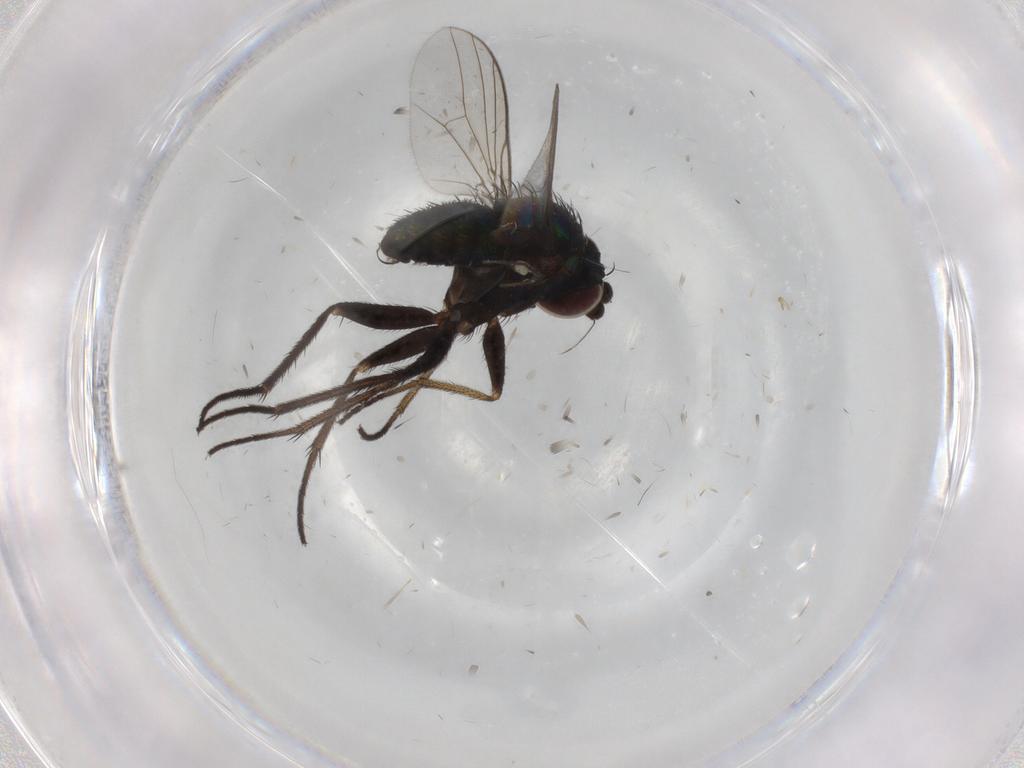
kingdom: Animalia
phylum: Arthropoda
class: Insecta
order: Diptera
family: Dolichopodidae
